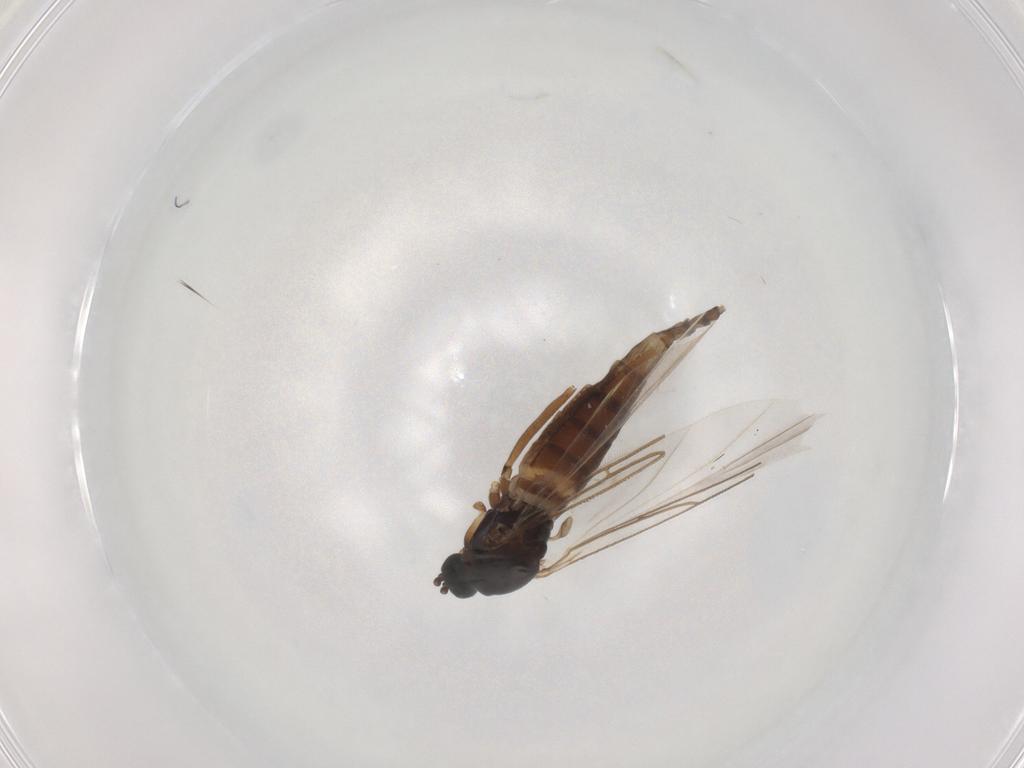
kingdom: Animalia
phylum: Arthropoda
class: Insecta
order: Diptera
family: Sciaridae
